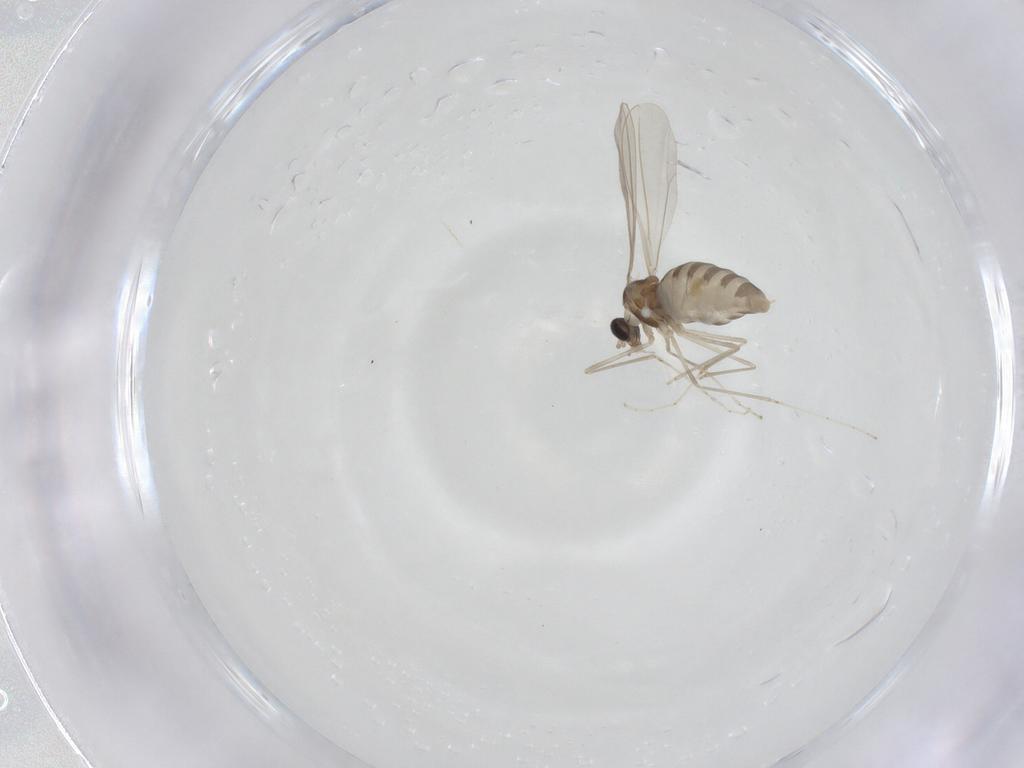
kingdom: Animalia
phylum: Arthropoda
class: Insecta
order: Diptera
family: Cecidomyiidae
